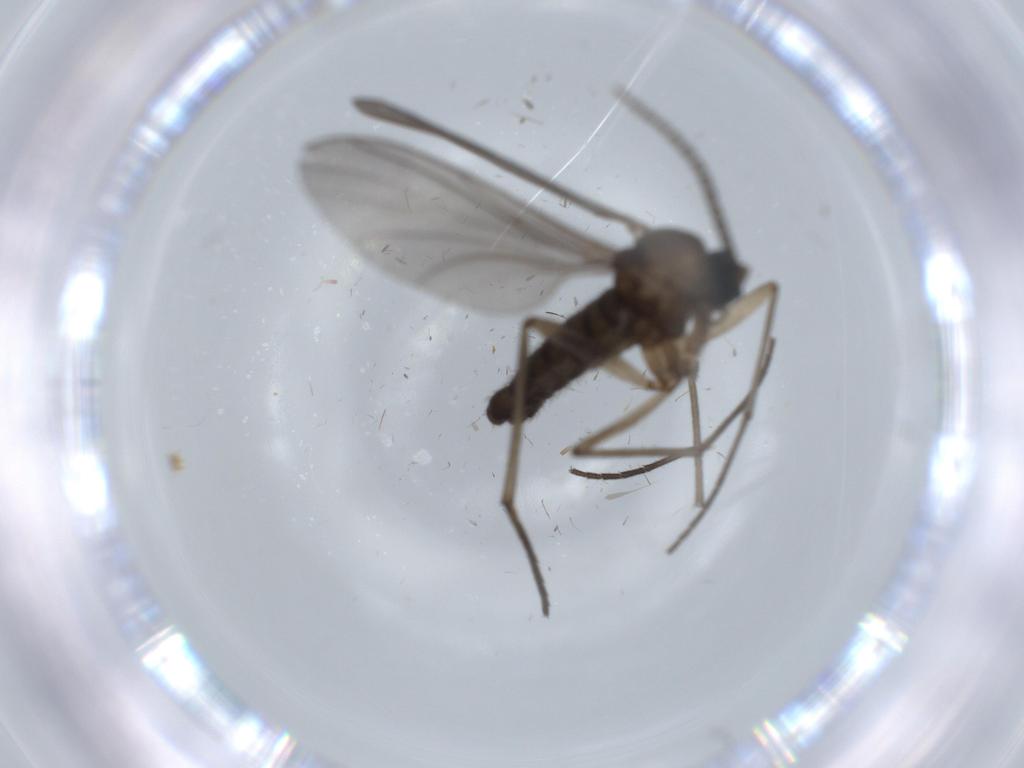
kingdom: Animalia
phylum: Arthropoda
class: Insecta
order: Diptera
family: Sciaridae
